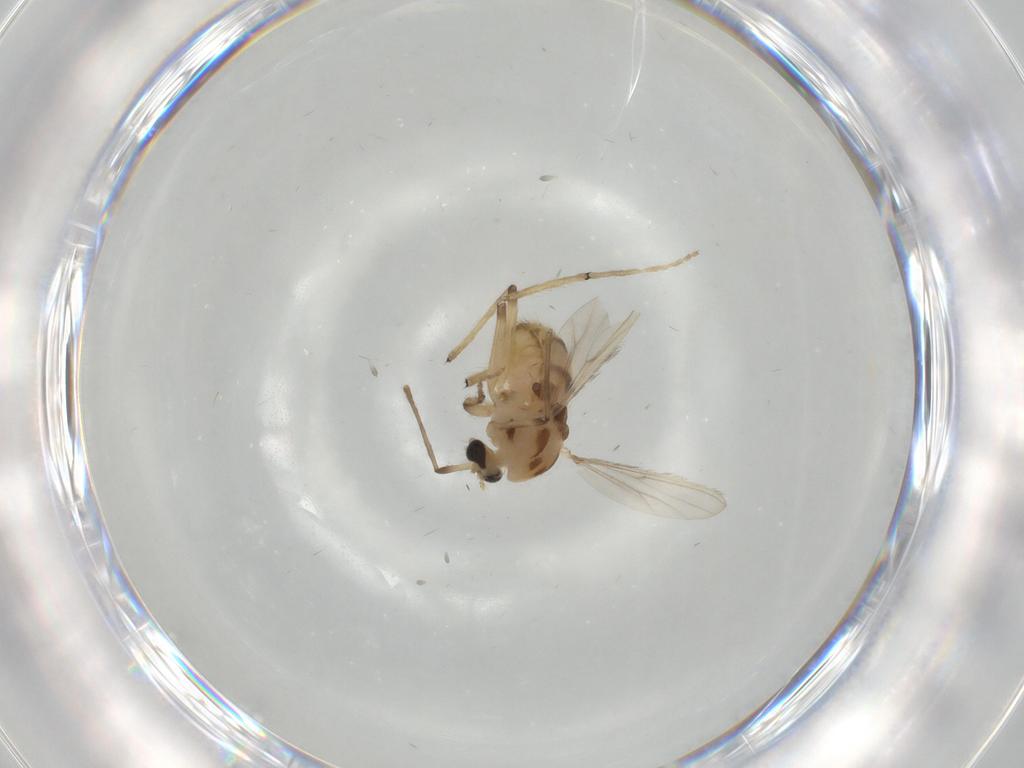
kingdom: Animalia
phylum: Arthropoda
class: Insecta
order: Diptera
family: Chironomidae
